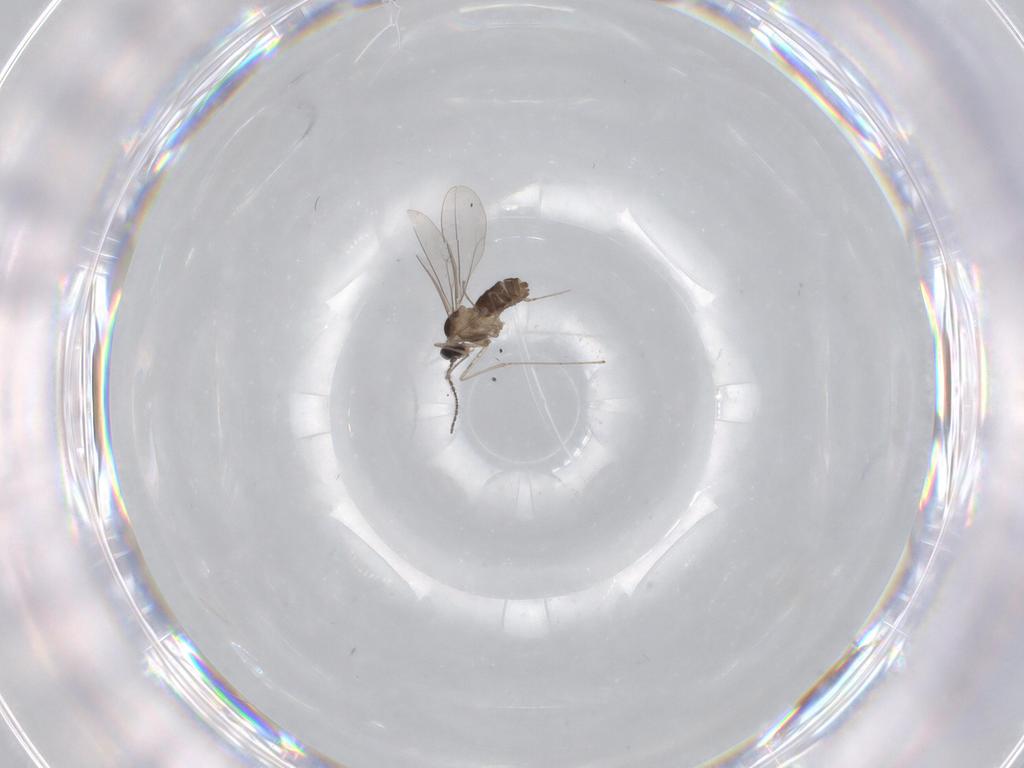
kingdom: Animalia
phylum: Arthropoda
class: Insecta
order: Diptera
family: Cecidomyiidae
